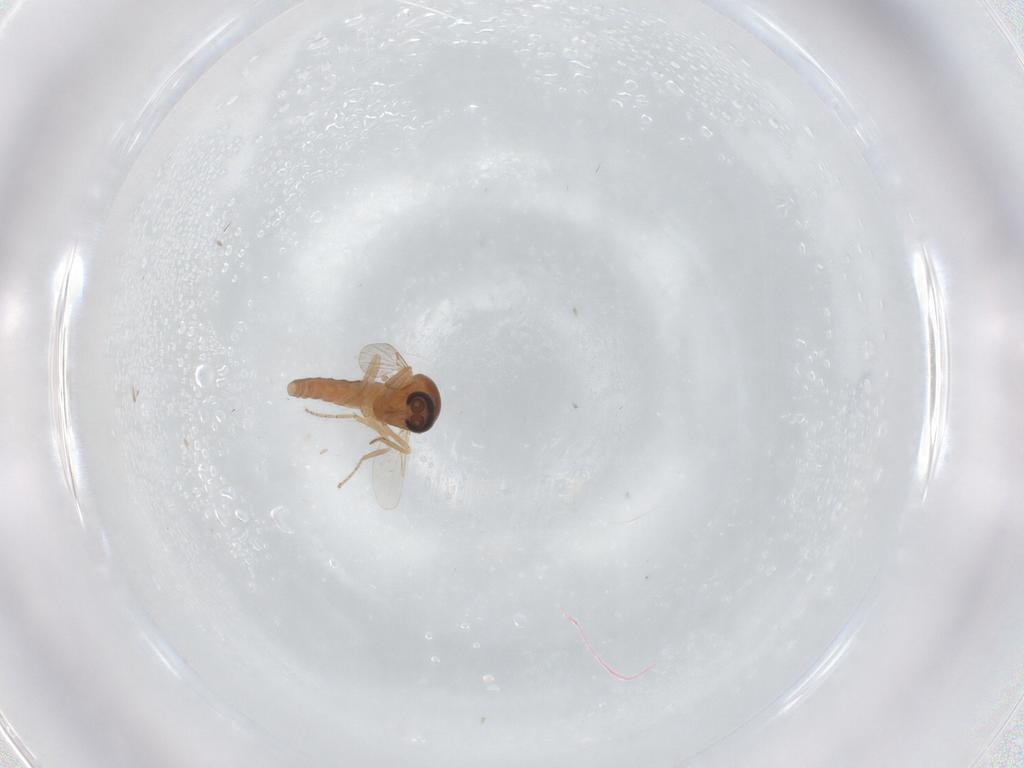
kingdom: Animalia
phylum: Arthropoda
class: Insecta
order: Diptera
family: Ceratopogonidae
